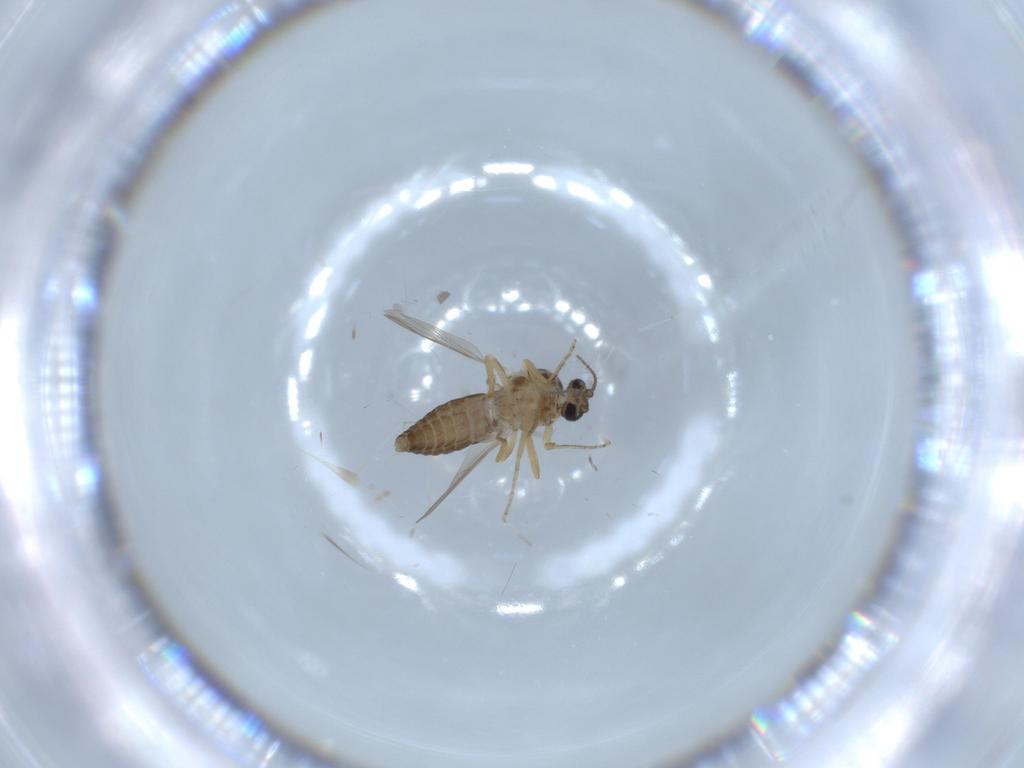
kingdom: Animalia
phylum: Arthropoda
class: Insecta
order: Diptera
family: Ceratopogonidae
